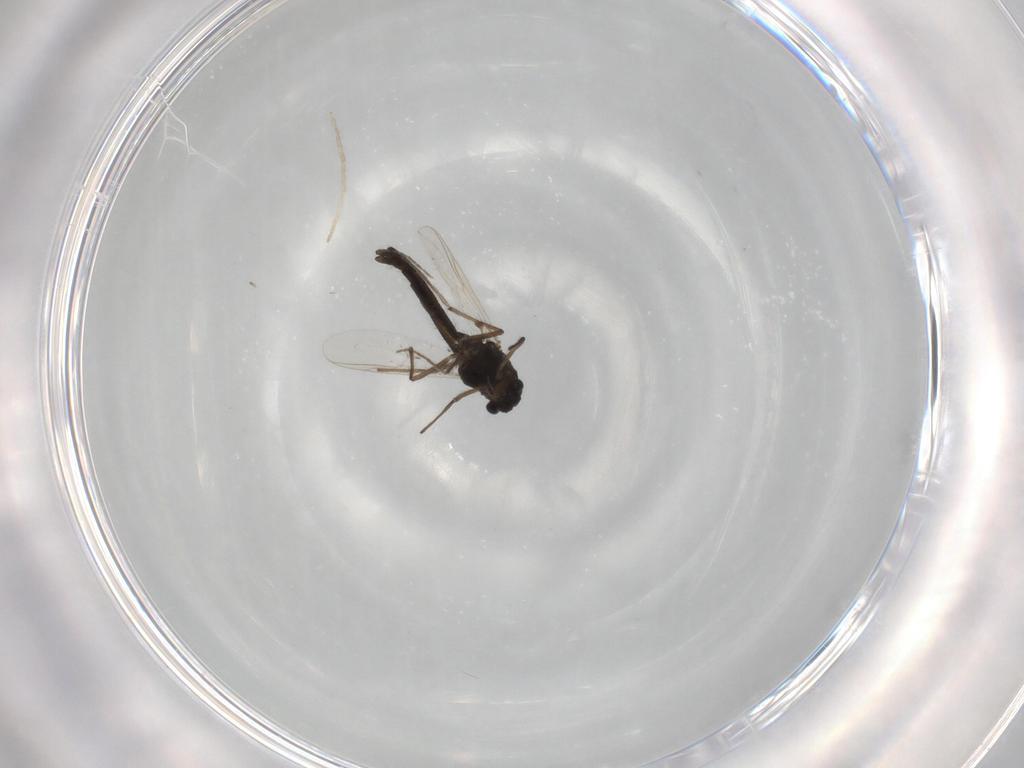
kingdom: Animalia
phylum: Arthropoda
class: Insecta
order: Diptera
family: Chironomidae
